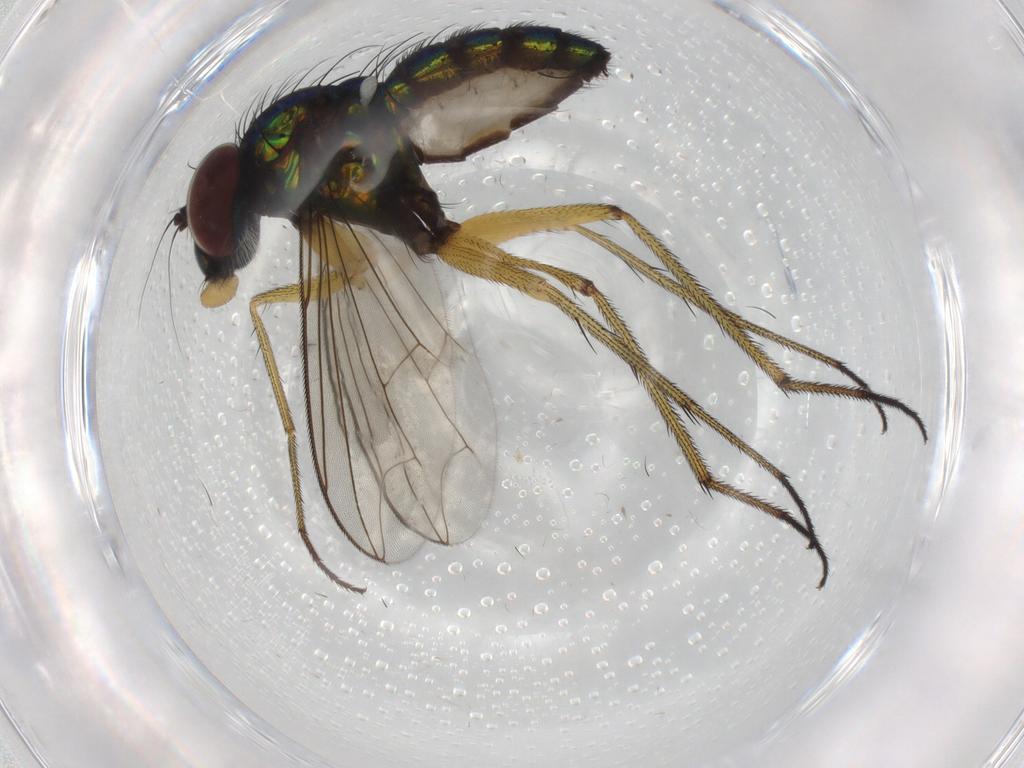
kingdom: Animalia
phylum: Arthropoda
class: Insecta
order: Diptera
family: Dolichopodidae
